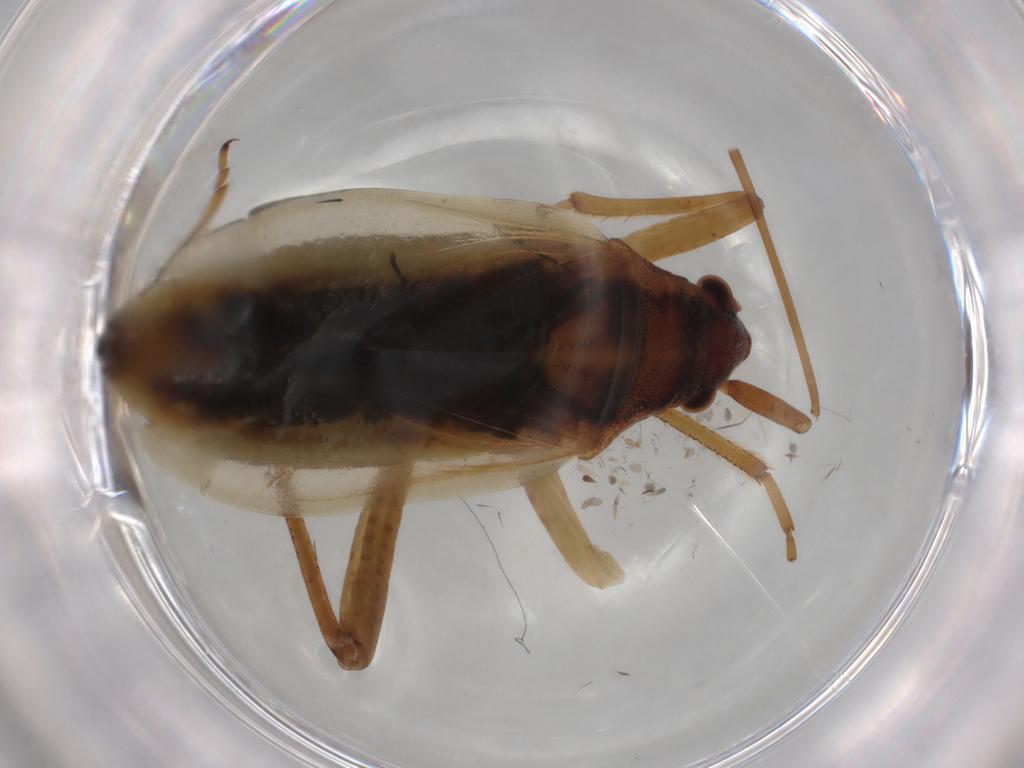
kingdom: Animalia
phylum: Arthropoda
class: Insecta
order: Hemiptera
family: Miridae
